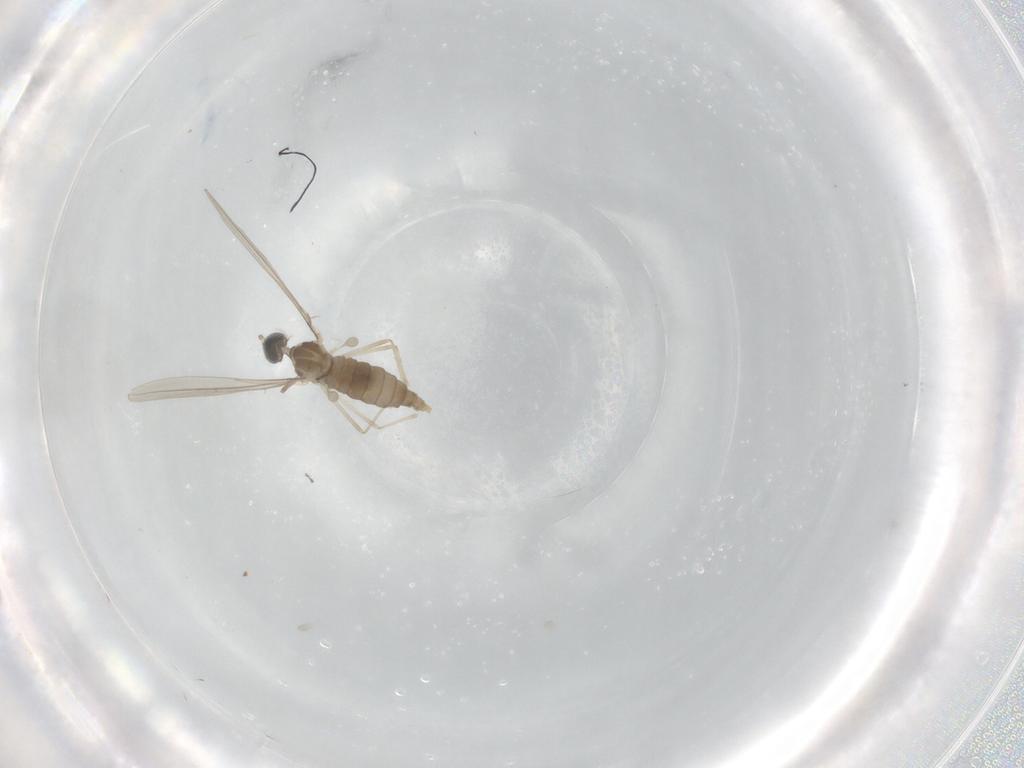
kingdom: Animalia
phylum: Arthropoda
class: Insecta
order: Diptera
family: Cecidomyiidae
